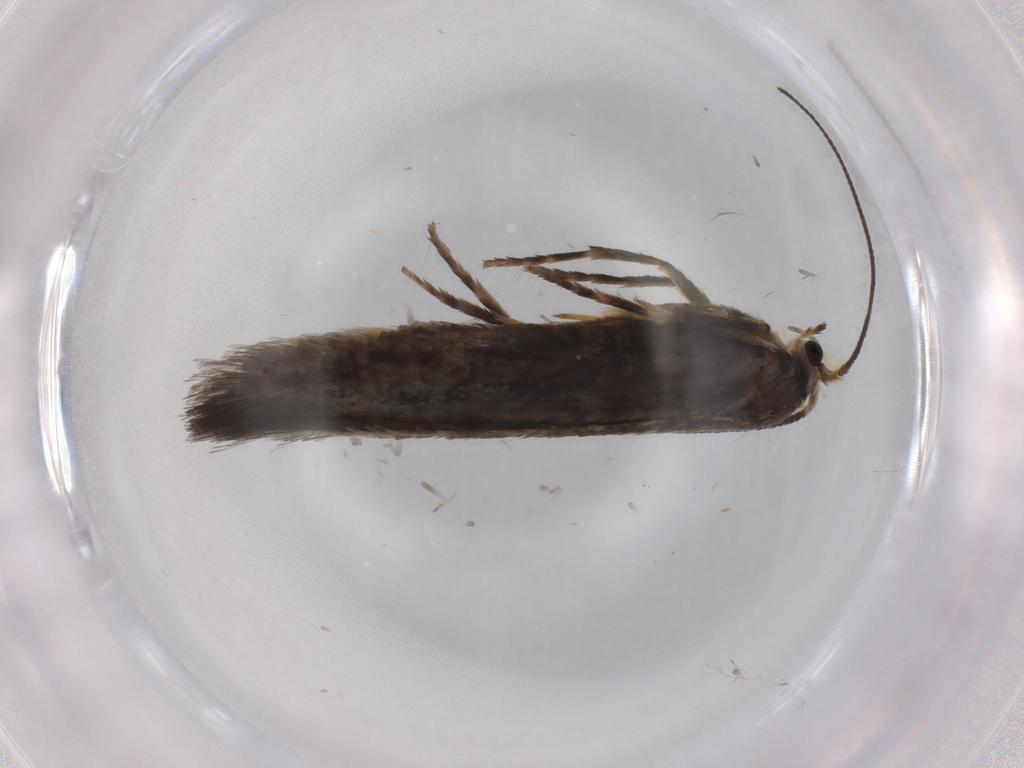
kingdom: Animalia
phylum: Arthropoda
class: Insecta
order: Lepidoptera
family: Nepticulidae
